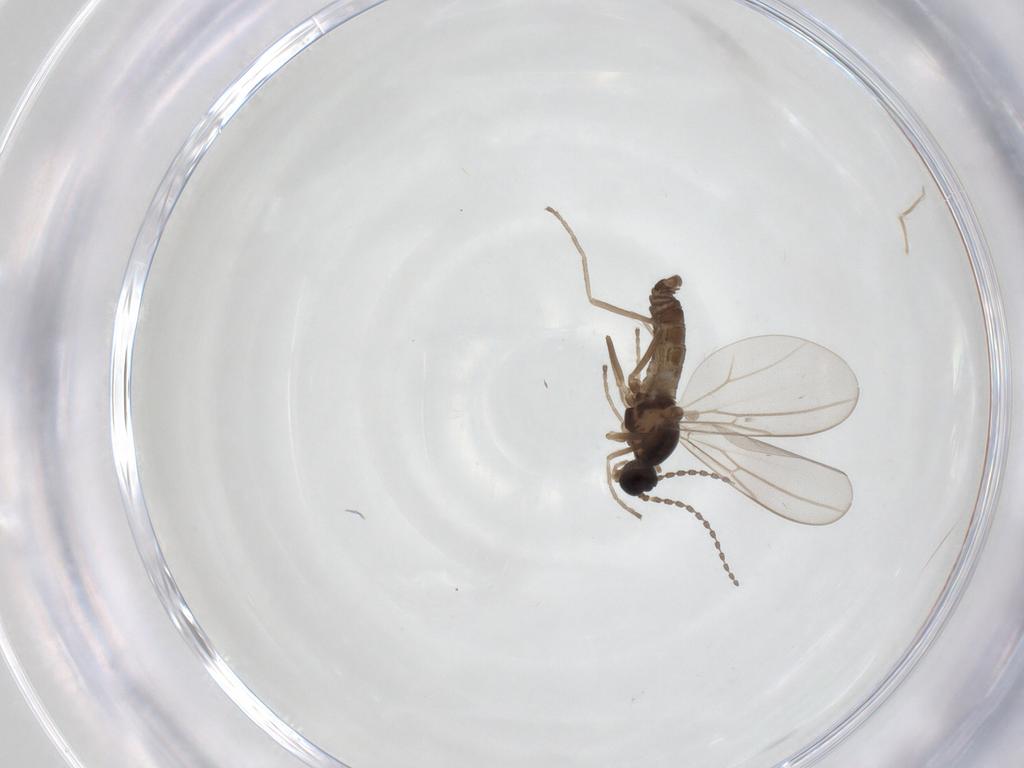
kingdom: Animalia
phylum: Arthropoda
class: Insecta
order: Diptera
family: Cecidomyiidae
